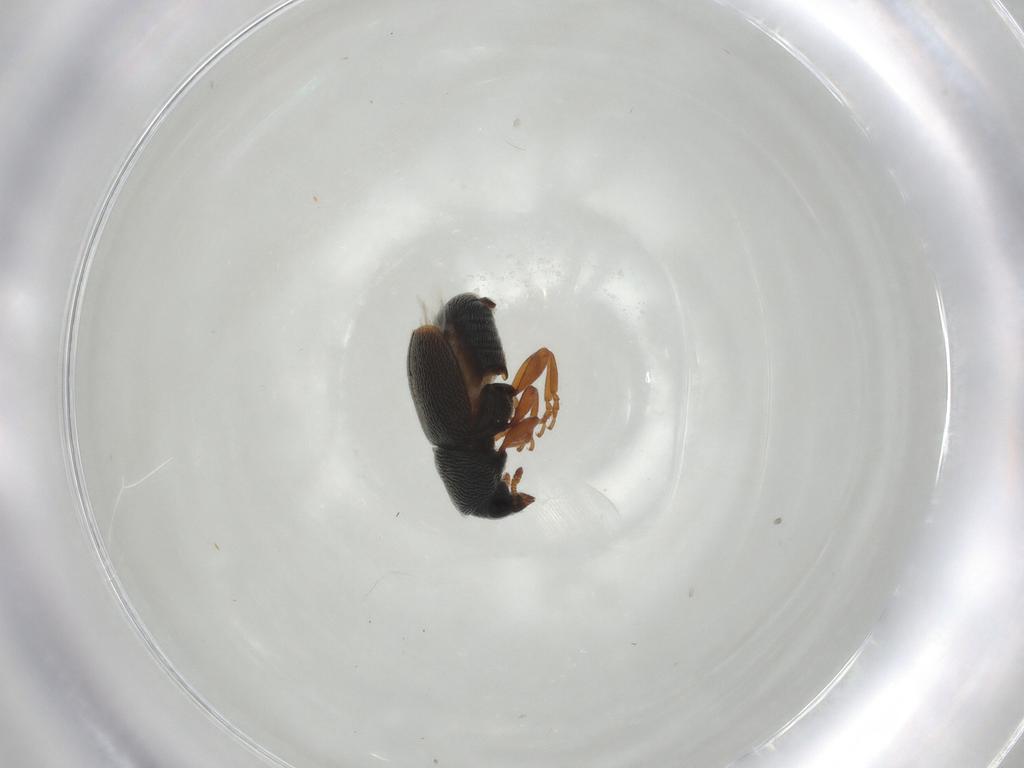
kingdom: Animalia
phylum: Arthropoda
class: Insecta
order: Coleoptera
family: Anthribidae
